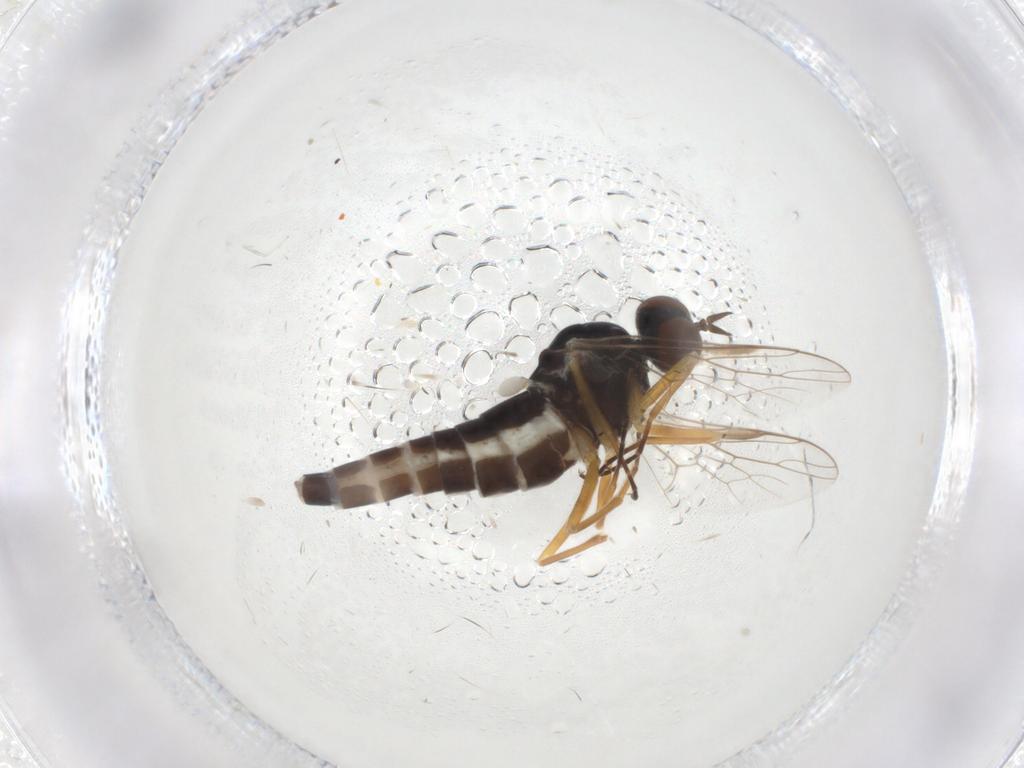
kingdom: Animalia
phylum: Arthropoda
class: Insecta
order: Diptera
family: Scenopinidae
